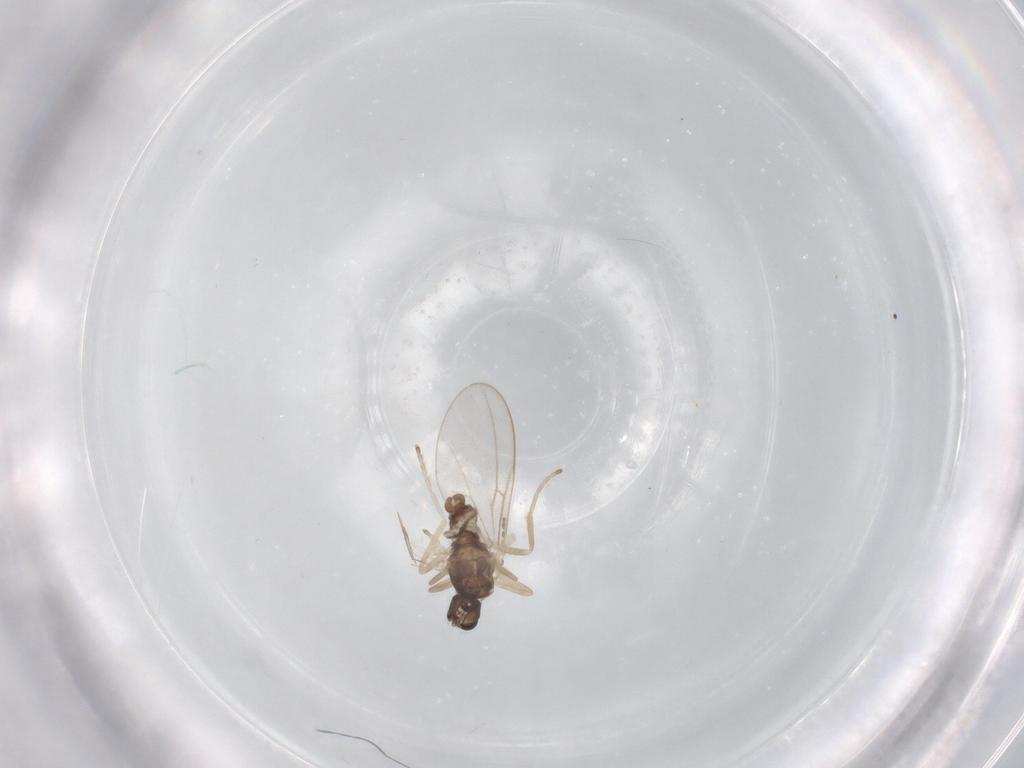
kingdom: Animalia
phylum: Arthropoda
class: Insecta
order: Diptera
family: Cecidomyiidae
